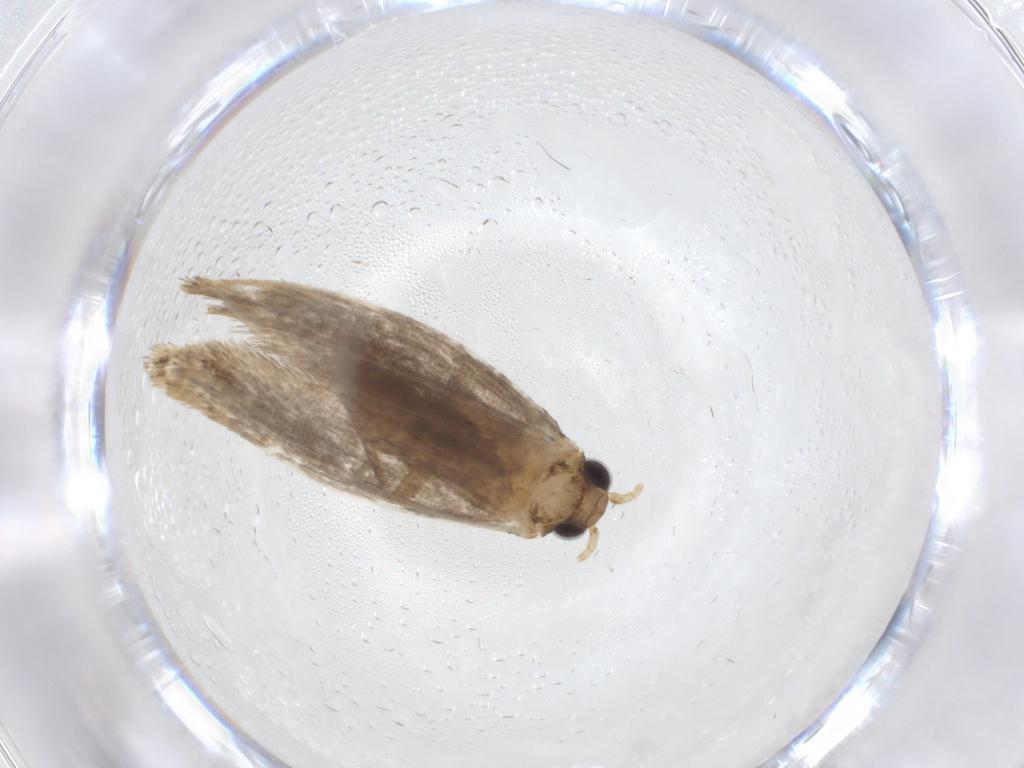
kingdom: Animalia
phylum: Arthropoda
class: Insecta
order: Lepidoptera
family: Tineidae
